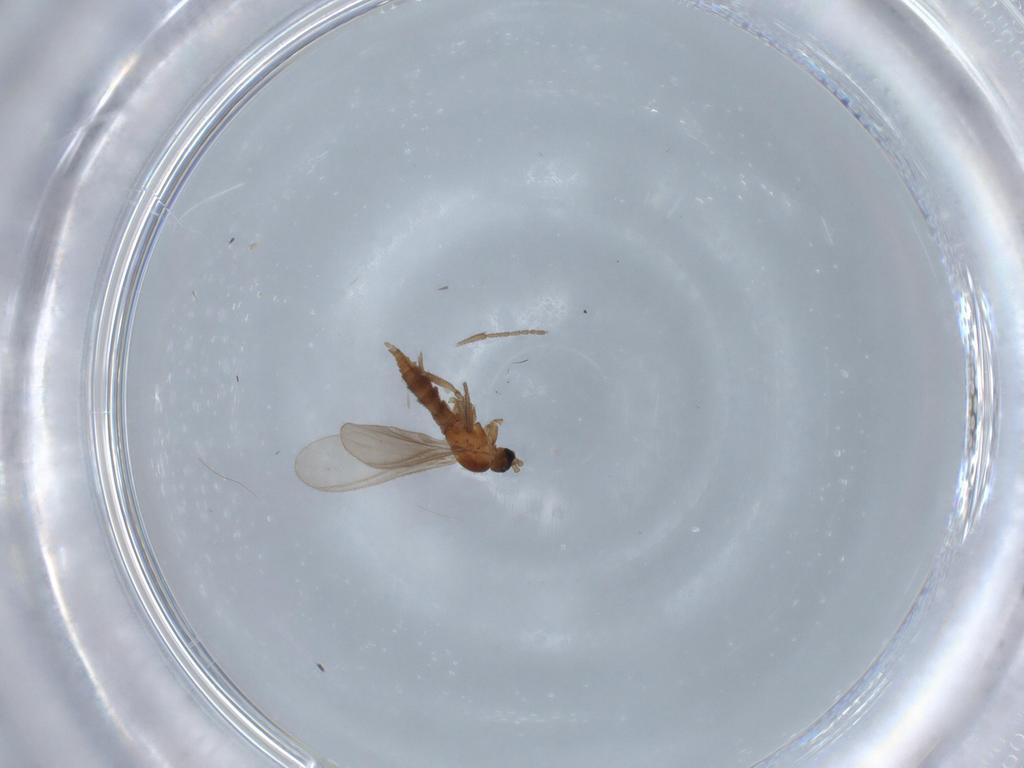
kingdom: Animalia
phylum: Arthropoda
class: Insecta
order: Diptera
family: Sciaridae
